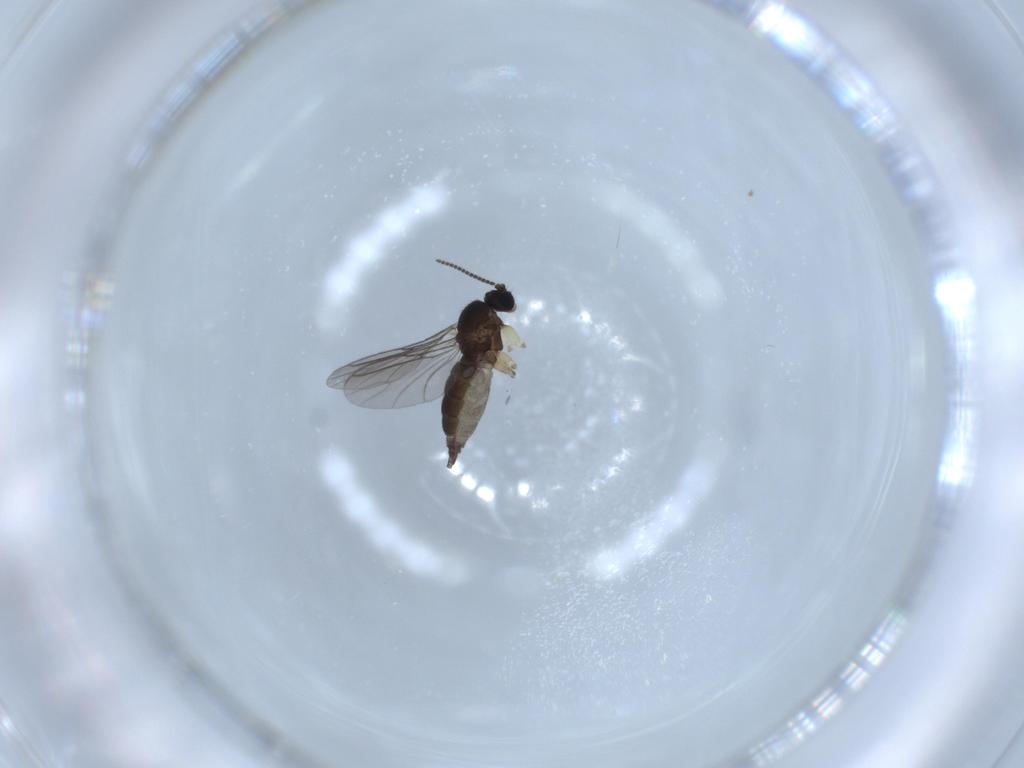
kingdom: Animalia
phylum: Arthropoda
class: Insecta
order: Diptera
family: Sciaridae
